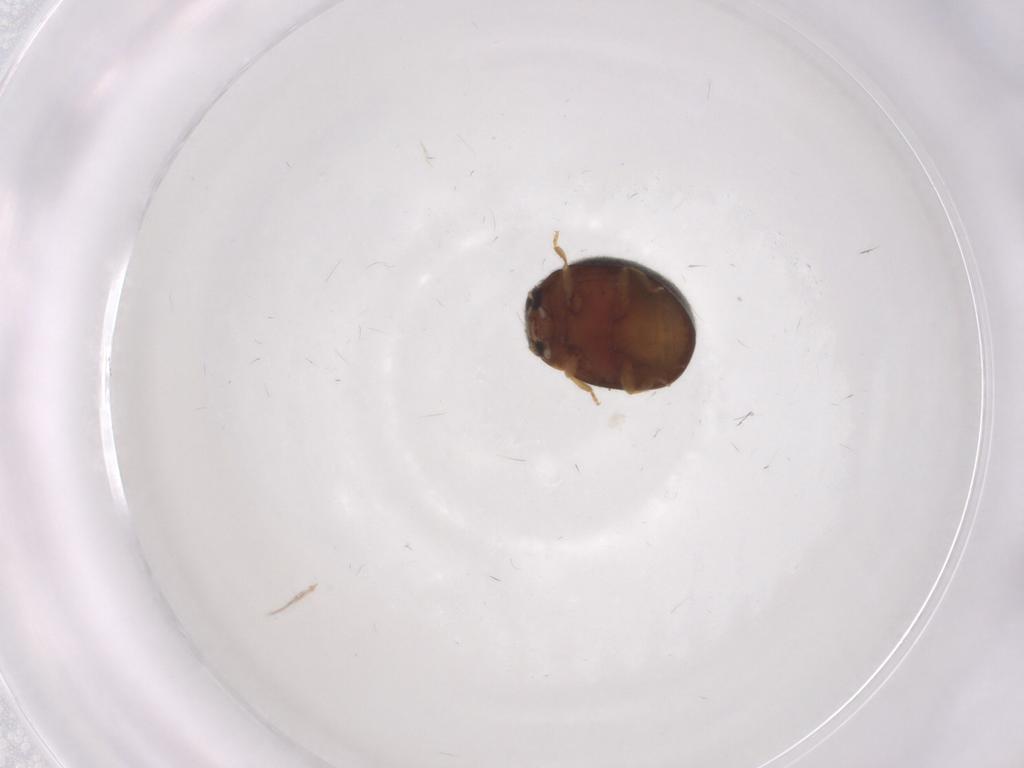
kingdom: Animalia
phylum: Arthropoda
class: Insecta
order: Coleoptera
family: Coccinellidae
